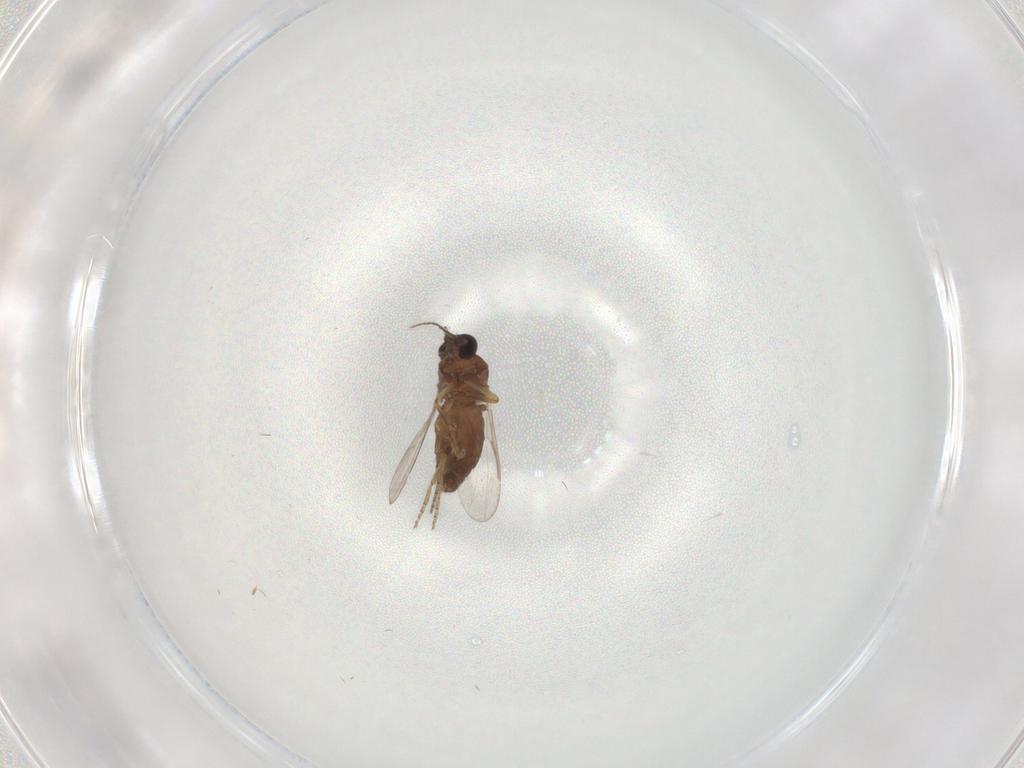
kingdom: Animalia
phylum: Arthropoda
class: Insecta
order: Diptera
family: Ceratopogonidae
